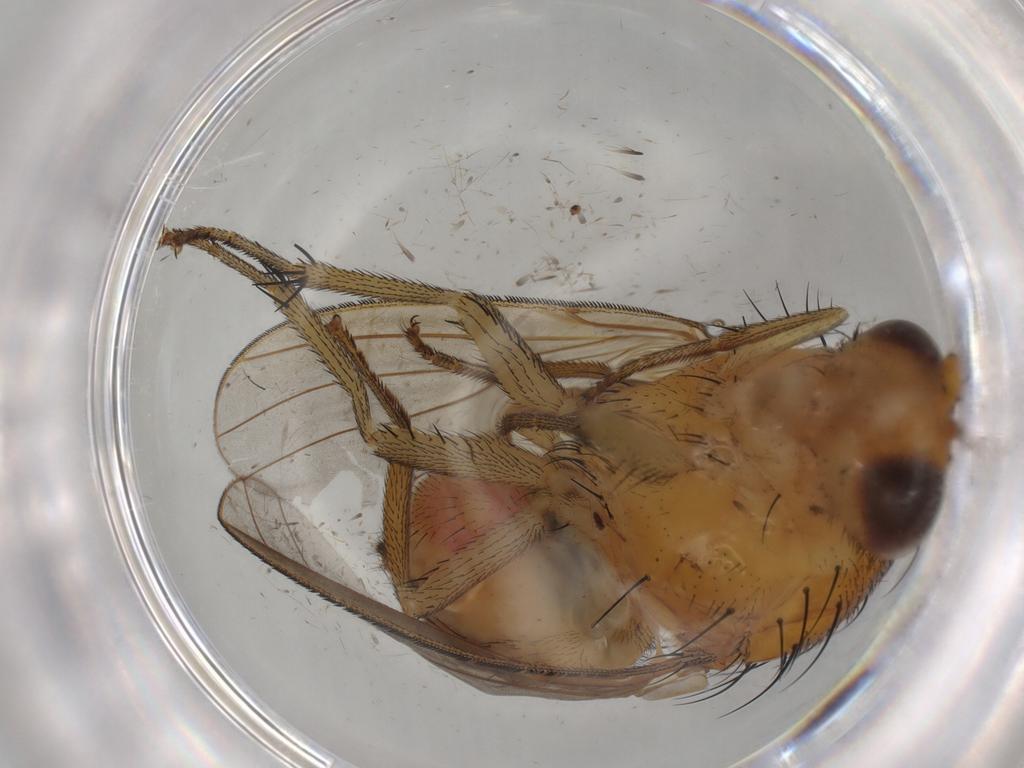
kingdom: Animalia
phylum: Arthropoda
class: Insecta
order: Diptera
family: Chironomidae
